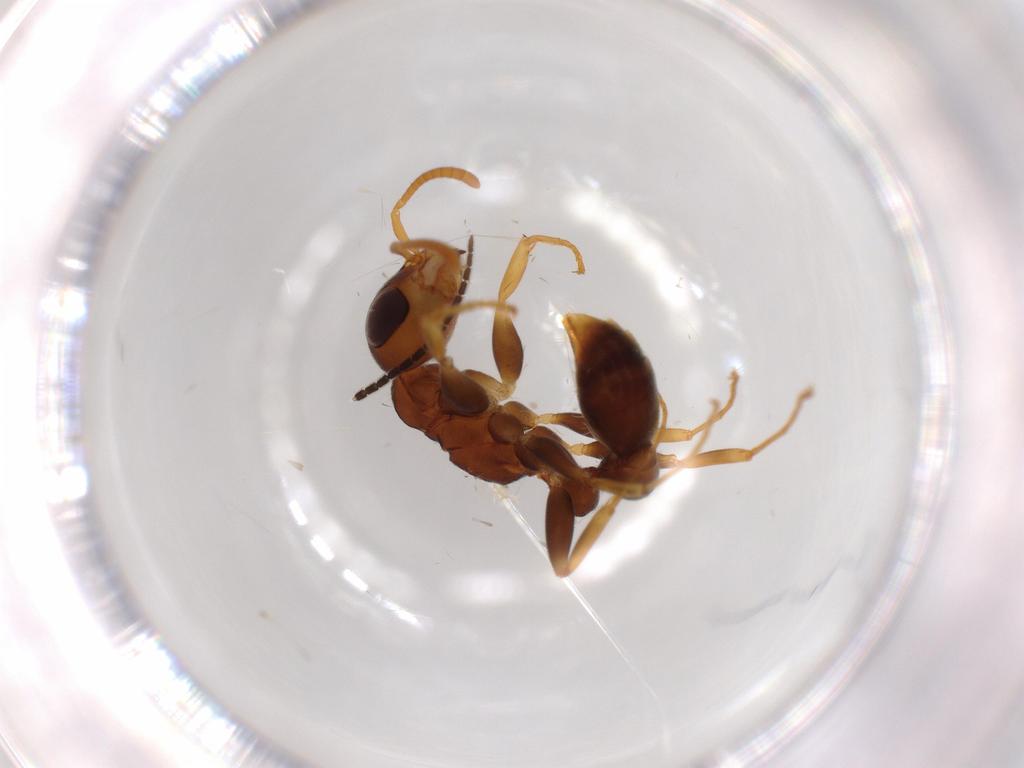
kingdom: Animalia
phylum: Arthropoda
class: Insecta
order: Hymenoptera
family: Formicidae
